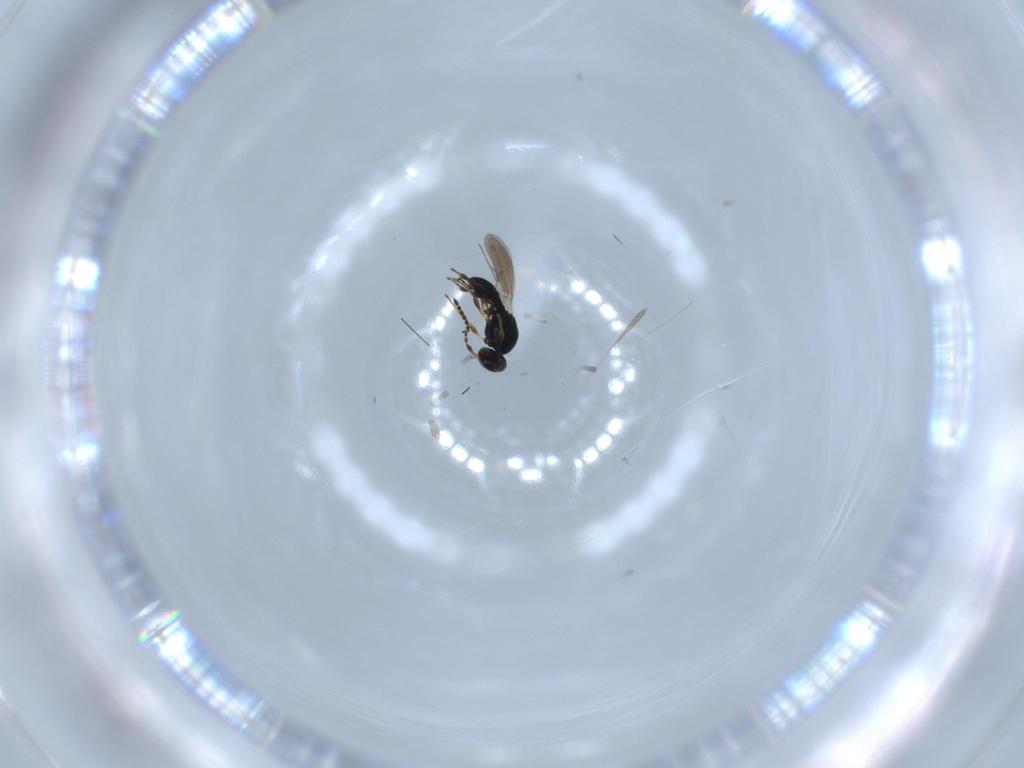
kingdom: Animalia
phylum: Arthropoda
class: Insecta
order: Hymenoptera
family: Platygastridae
